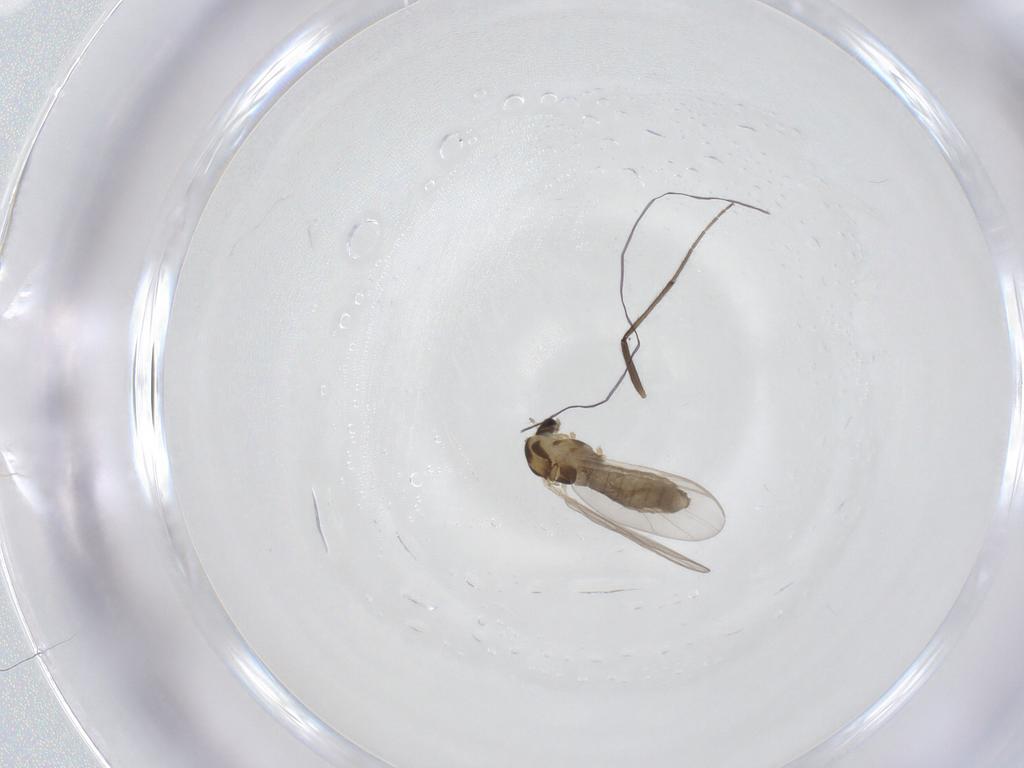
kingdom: Animalia
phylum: Arthropoda
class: Insecta
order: Diptera
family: Chironomidae
